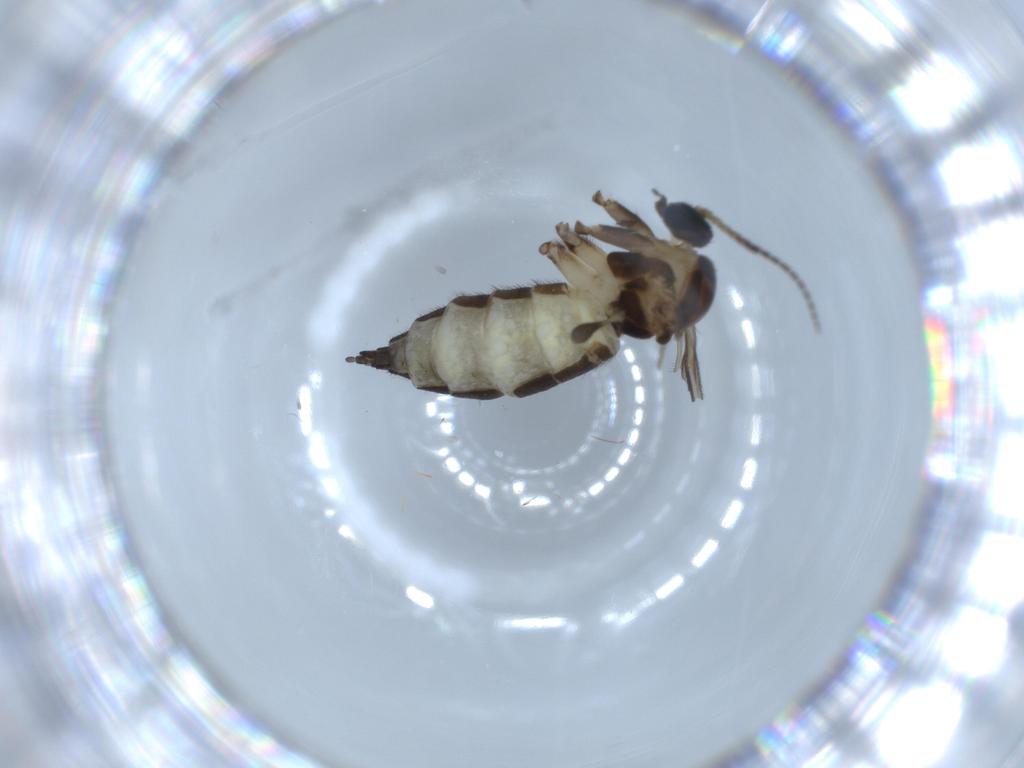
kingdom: Animalia
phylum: Arthropoda
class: Insecta
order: Diptera
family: Sciaridae
